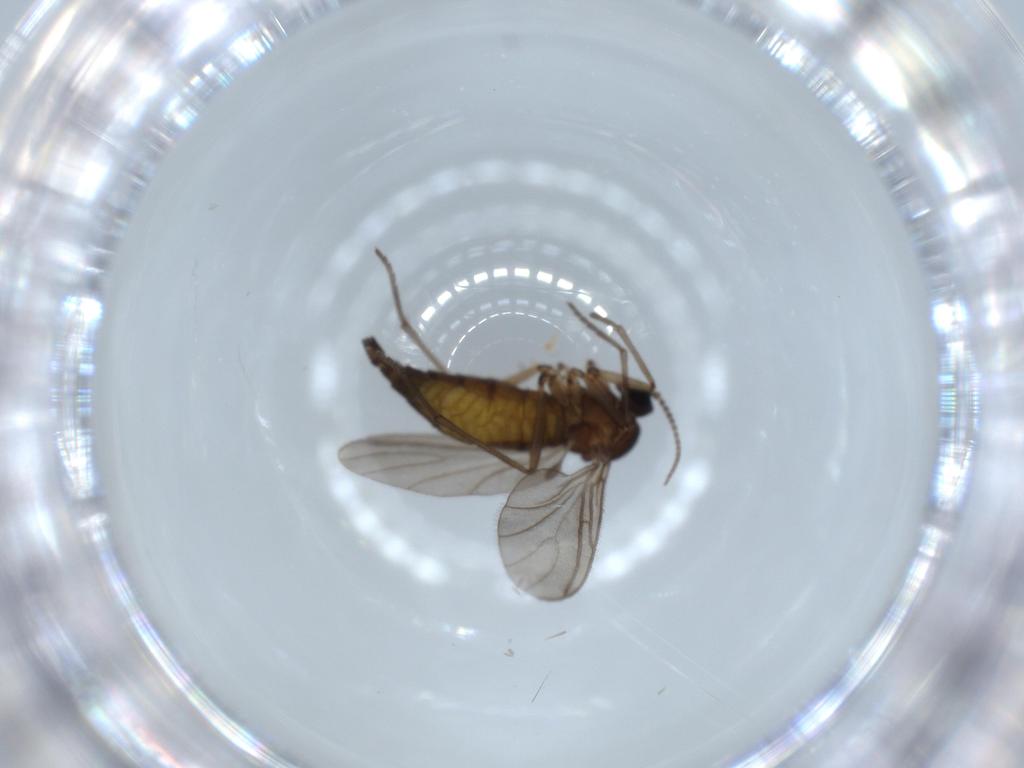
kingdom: Animalia
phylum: Arthropoda
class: Insecta
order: Diptera
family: Sciaridae
